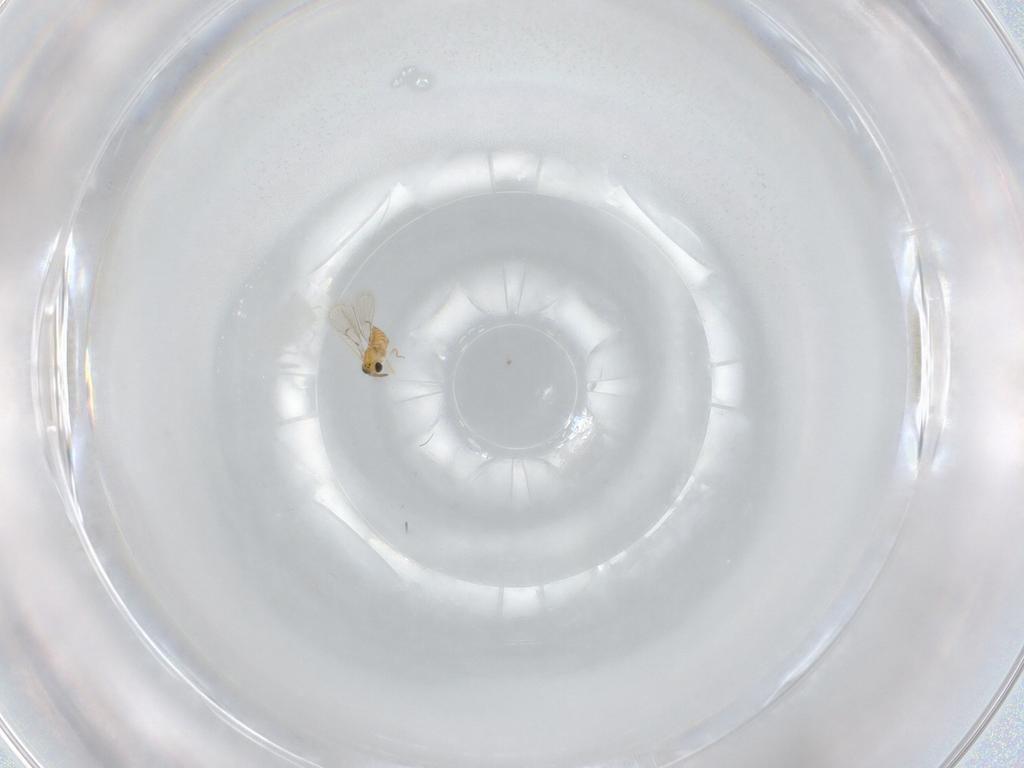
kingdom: Animalia
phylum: Arthropoda
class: Insecta
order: Hymenoptera
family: Trichogrammatidae
